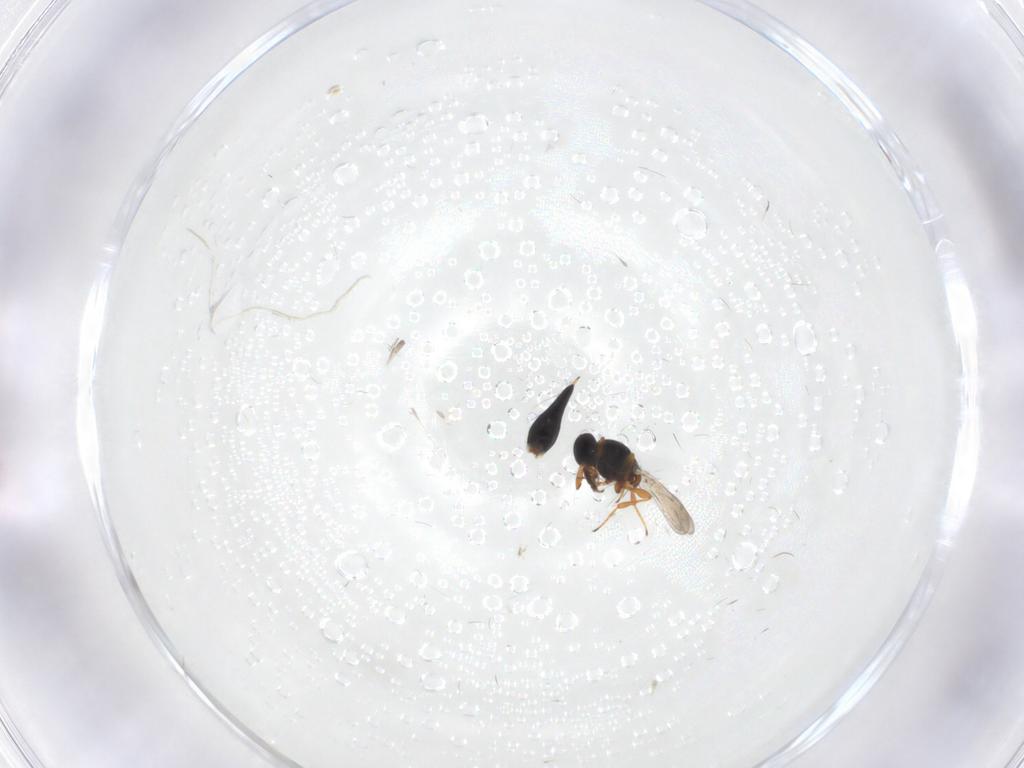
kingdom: Animalia
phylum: Arthropoda
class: Insecta
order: Hymenoptera
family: Platygastridae
